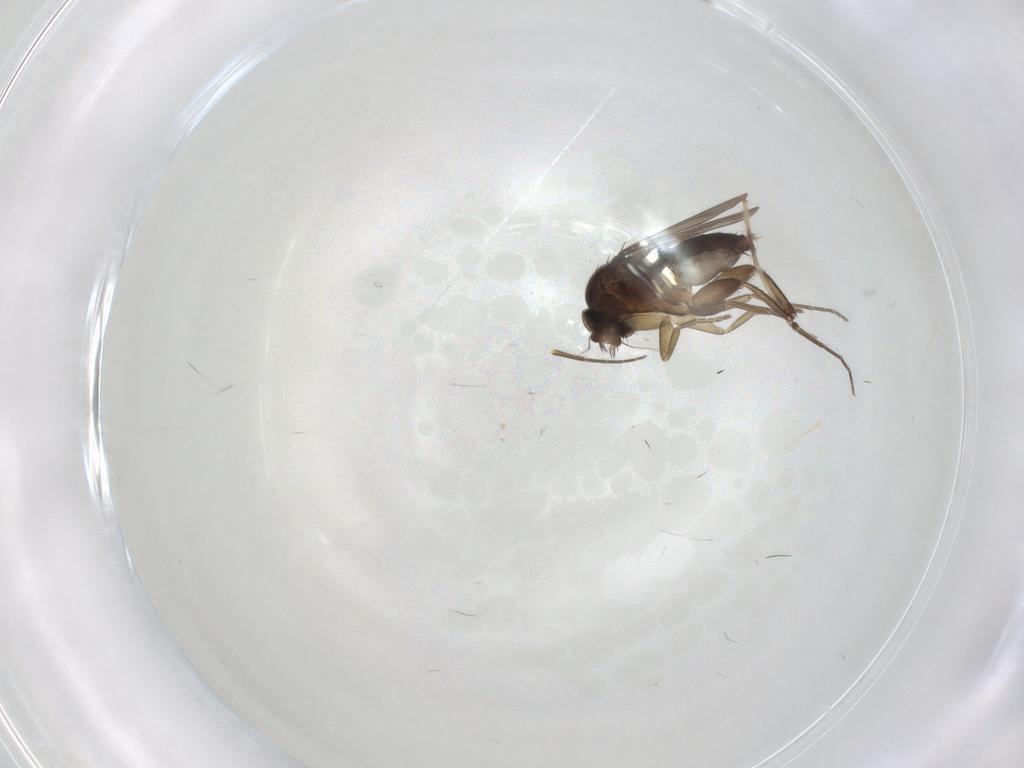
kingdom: Animalia
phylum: Arthropoda
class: Insecta
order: Diptera
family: Phoridae
